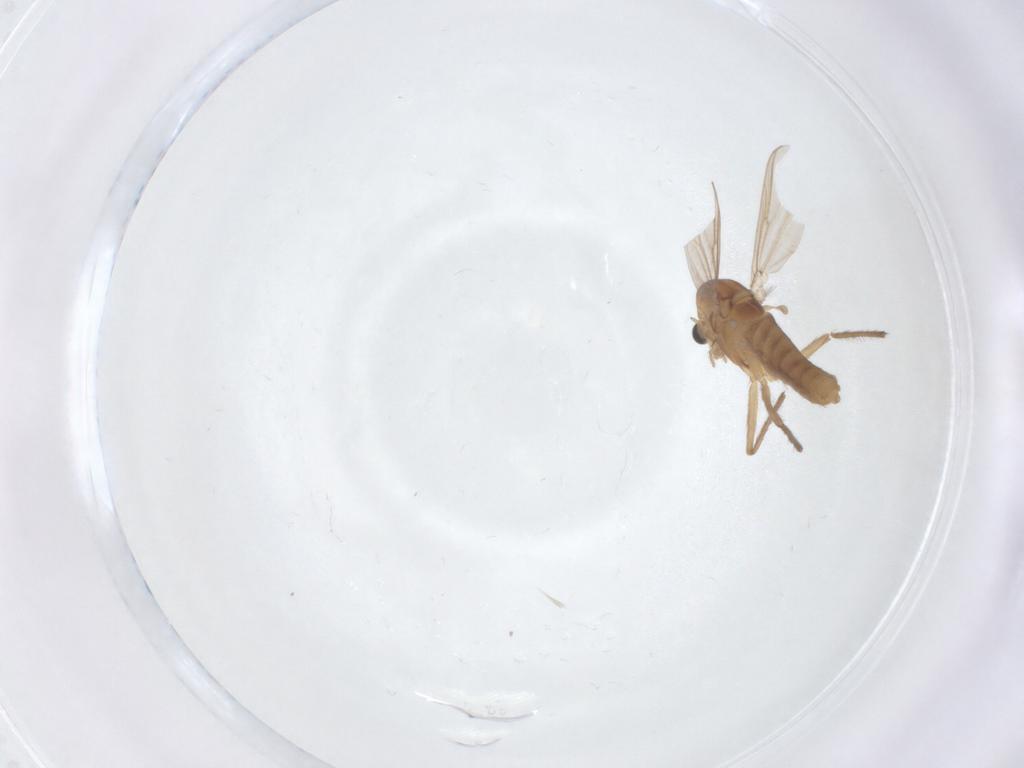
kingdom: Animalia
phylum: Arthropoda
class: Insecta
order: Diptera
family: Chironomidae
